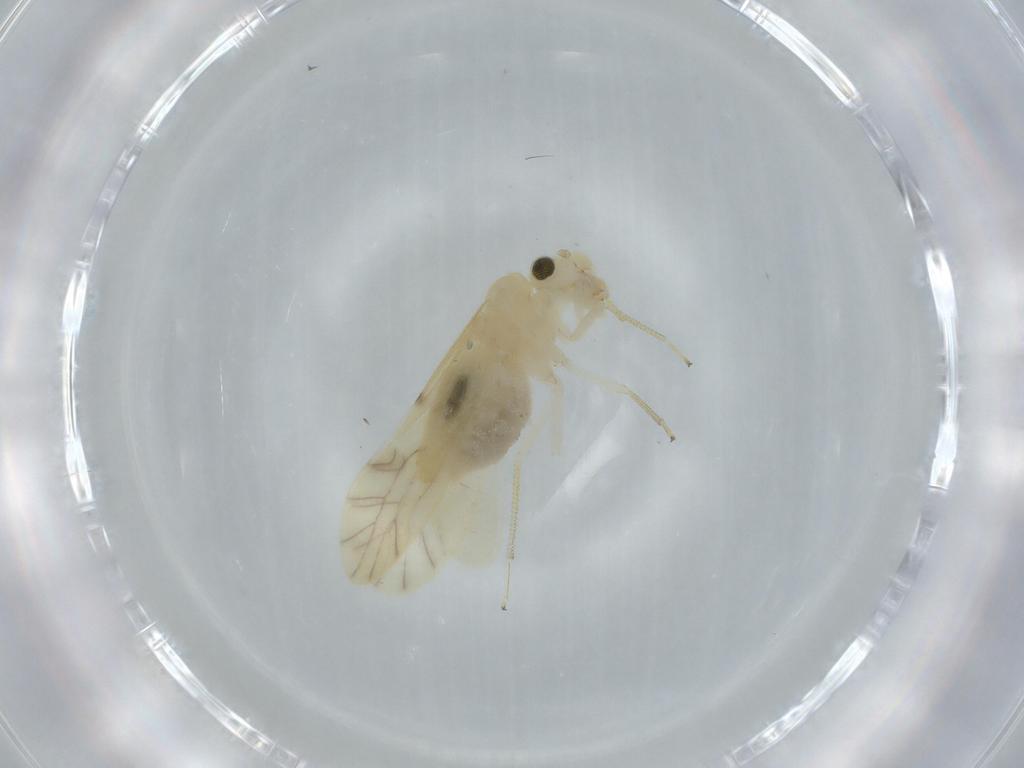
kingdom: Animalia
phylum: Arthropoda
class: Insecta
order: Psocodea
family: Caeciliusidae
